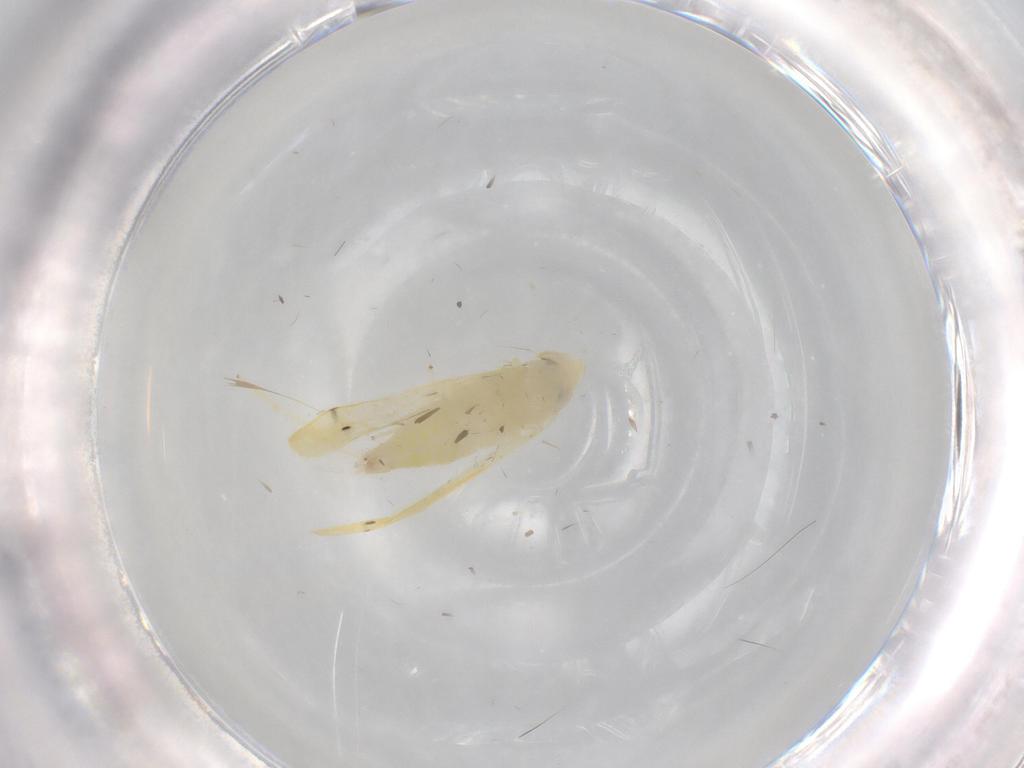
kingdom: Animalia
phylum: Arthropoda
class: Insecta
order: Hemiptera
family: Cicadellidae
